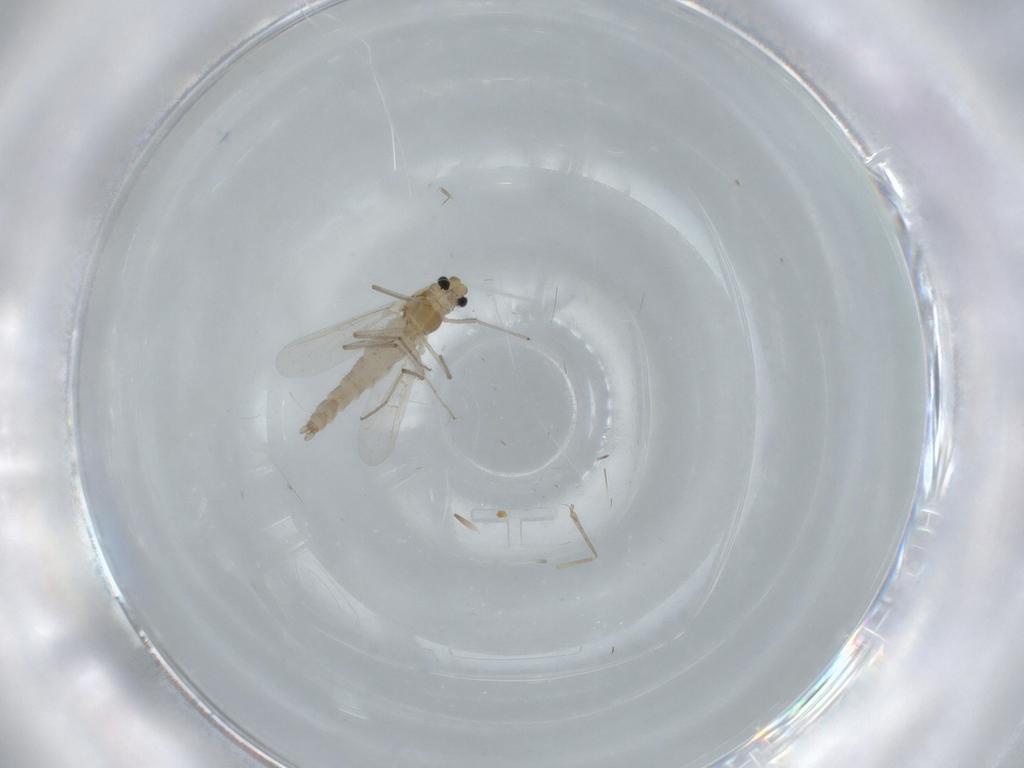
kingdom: Animalia
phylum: Arthropoda
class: Insecta
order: Diptera
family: Chironomidae
